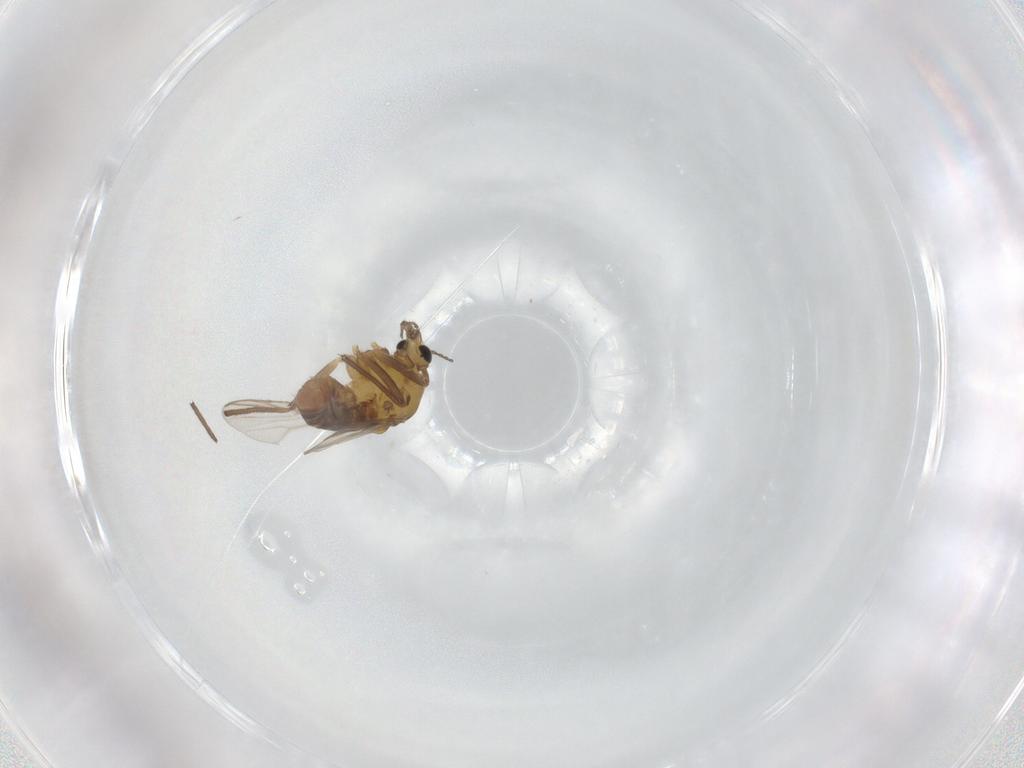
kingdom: Animalia
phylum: Arthropoda
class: Insecta
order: Diptera
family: Chironomidae
